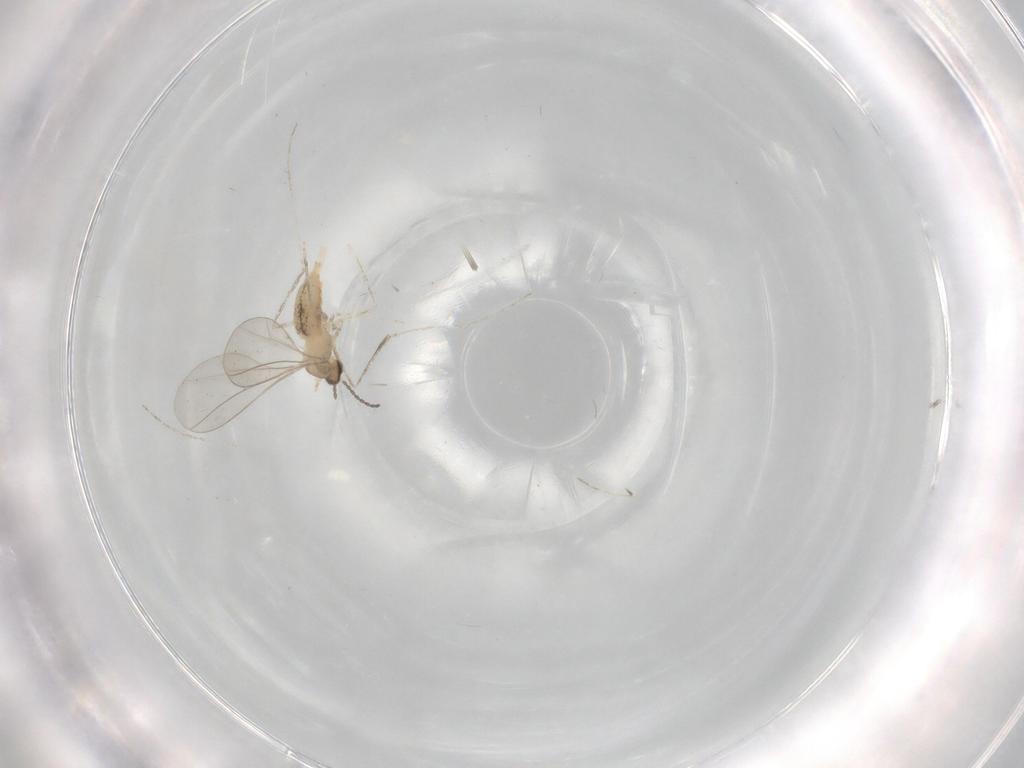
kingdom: Animalia
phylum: Arthropoda
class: Insecta
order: Diptera
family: Cecidomyiidae
